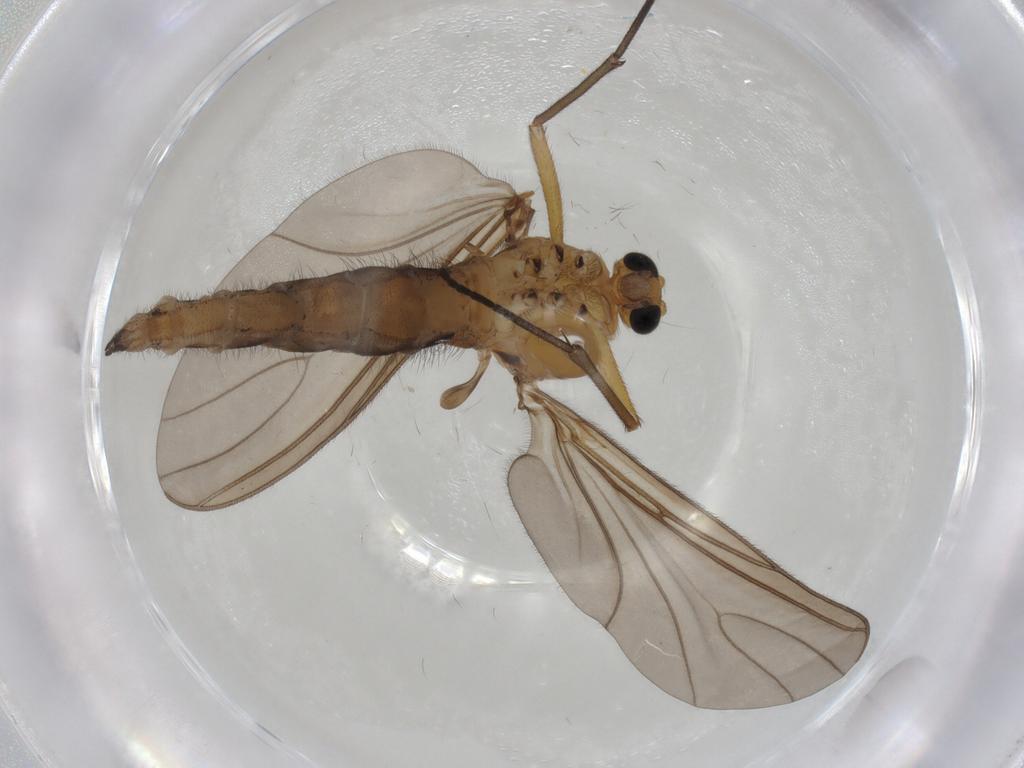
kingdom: Animalia
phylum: Arthropoda
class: Insecta
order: Diptera
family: Sciaridae
